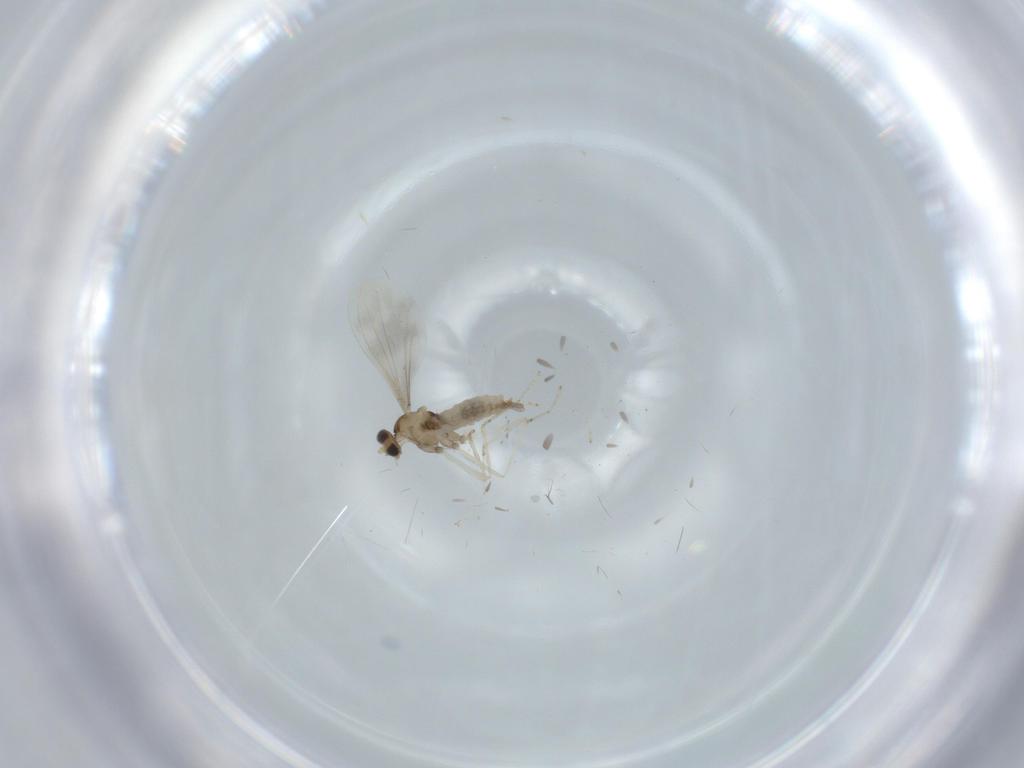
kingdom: Animalia
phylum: Arthropoda
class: Insecta
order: Diptera
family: Cecidomyiidae
